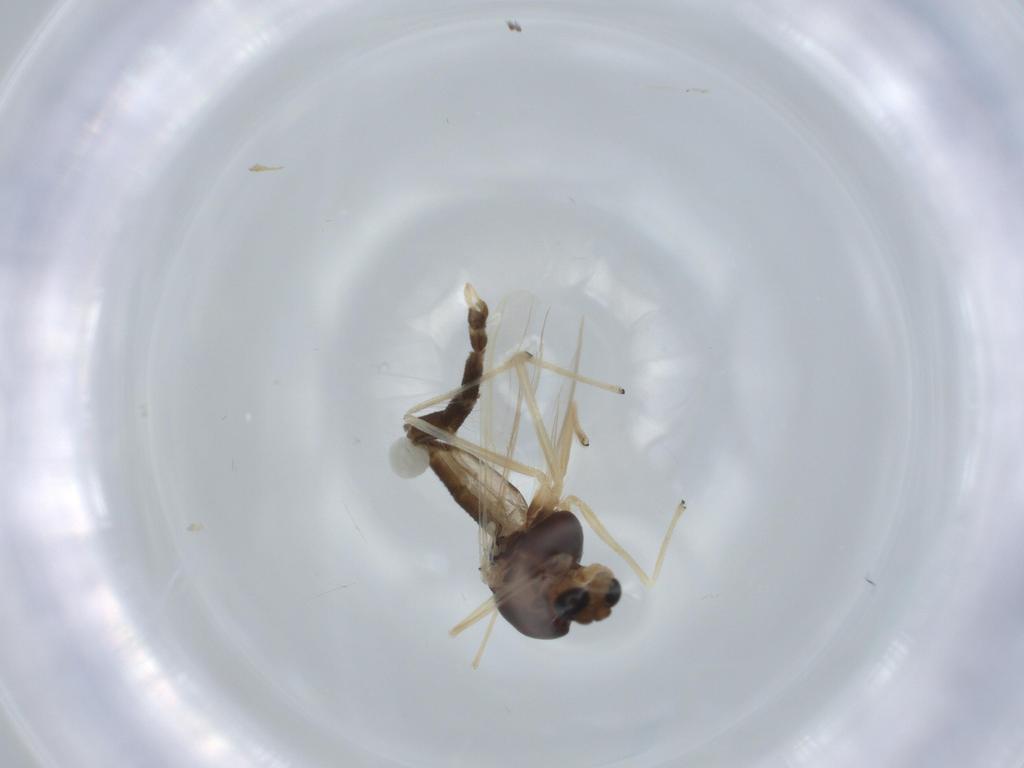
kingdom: Animalia
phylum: Arthropoda
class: Insecta
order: Diptera
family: Chironomidae
